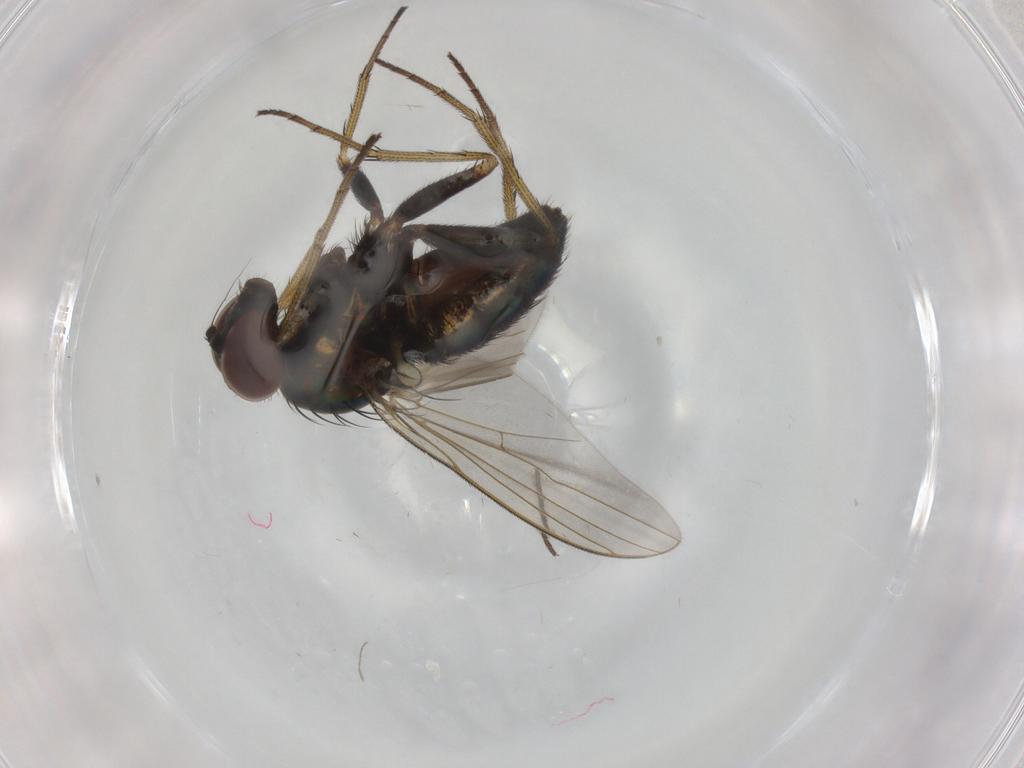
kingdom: Animalia
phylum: Arthropoda
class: Insecta
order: Diptera
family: Dolichopodidae
